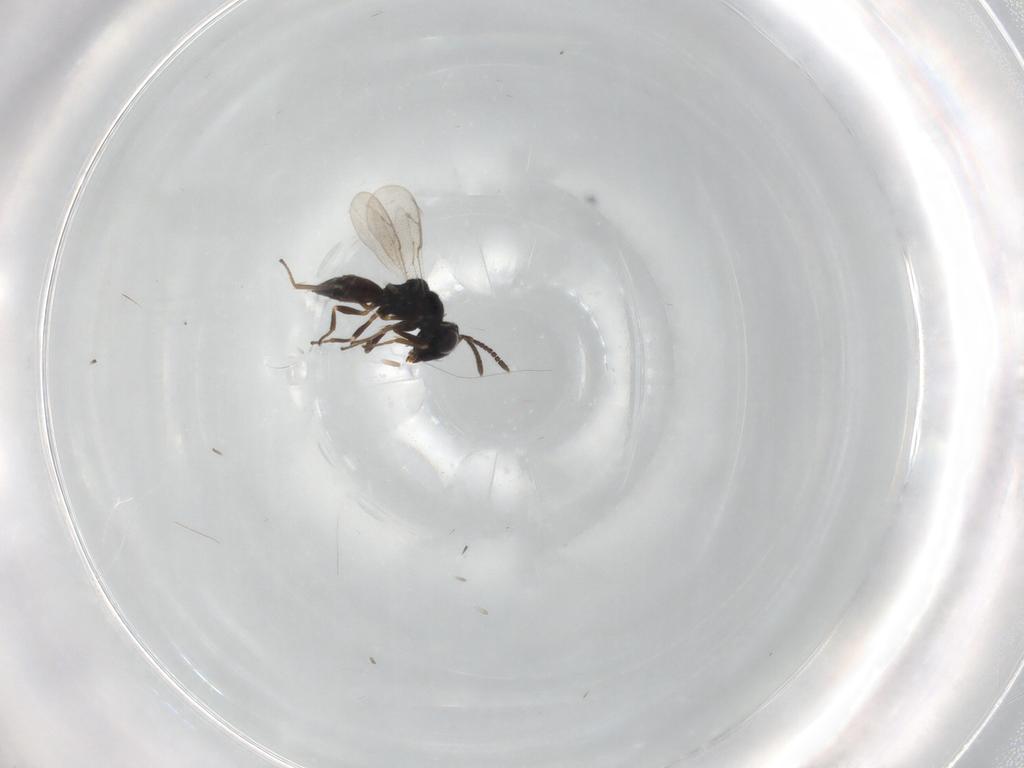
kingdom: Animalia
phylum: Arthropoda
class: Insecta
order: Hymenoptera
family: Pteromalidae
